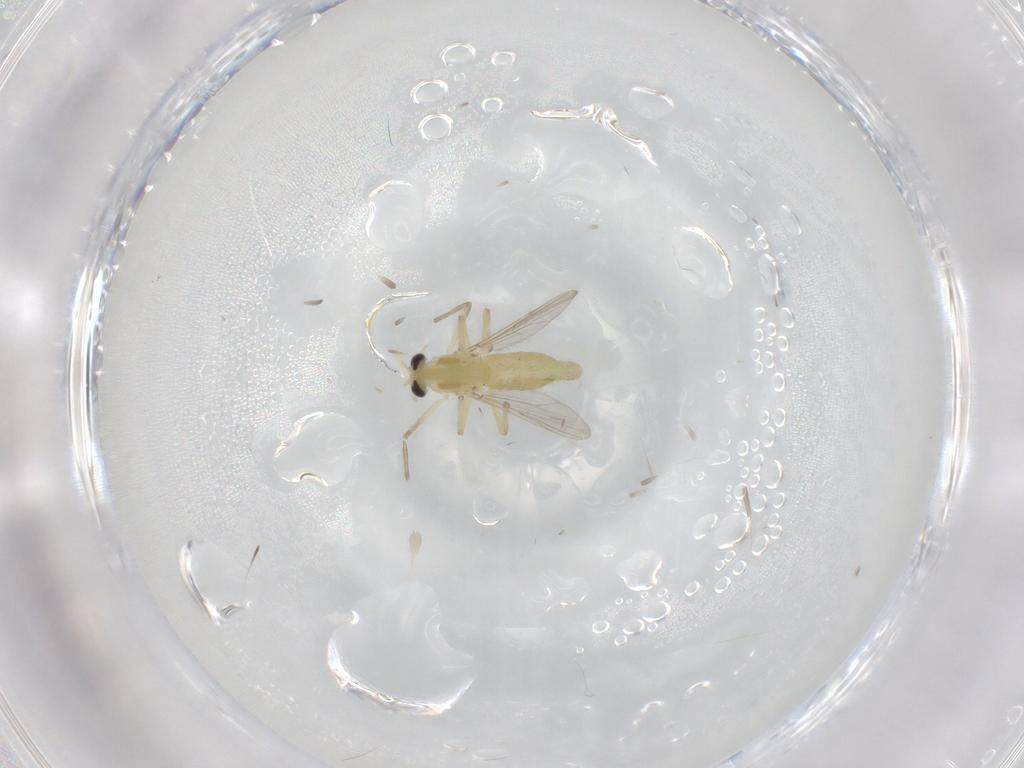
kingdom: Animalia
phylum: Arthropoda
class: Insecta
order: Diptera
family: Chironomidae
